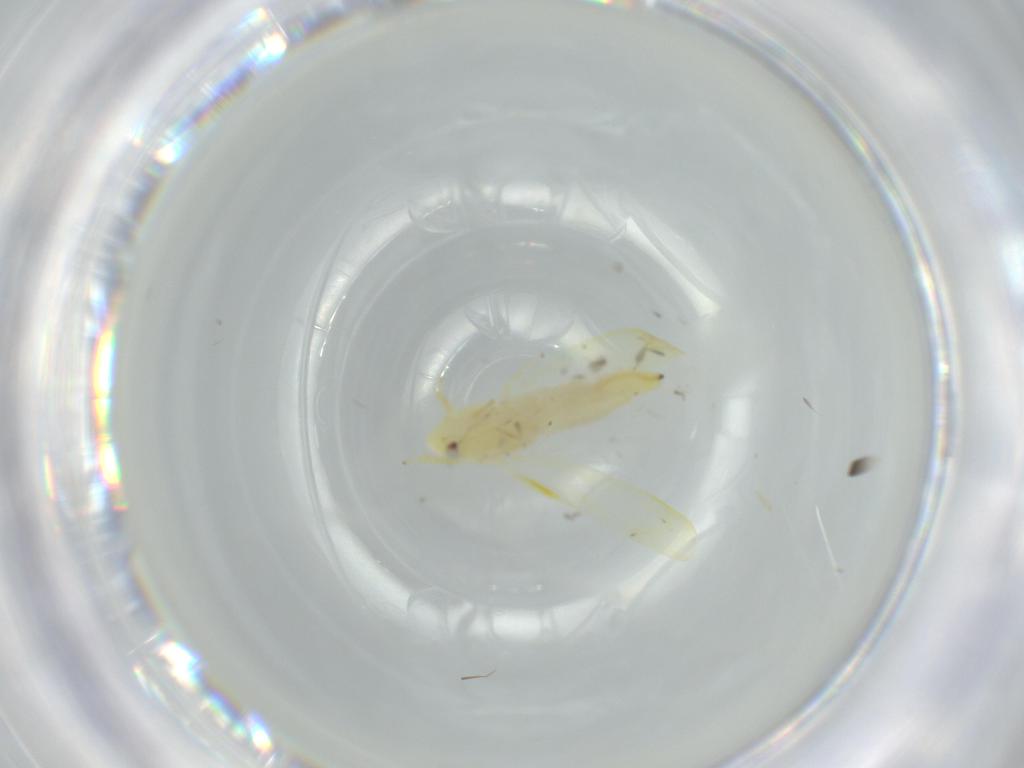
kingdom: Animalia
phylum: Arthropoda
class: Insecta
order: Hemiptera
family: Cicadellidae
